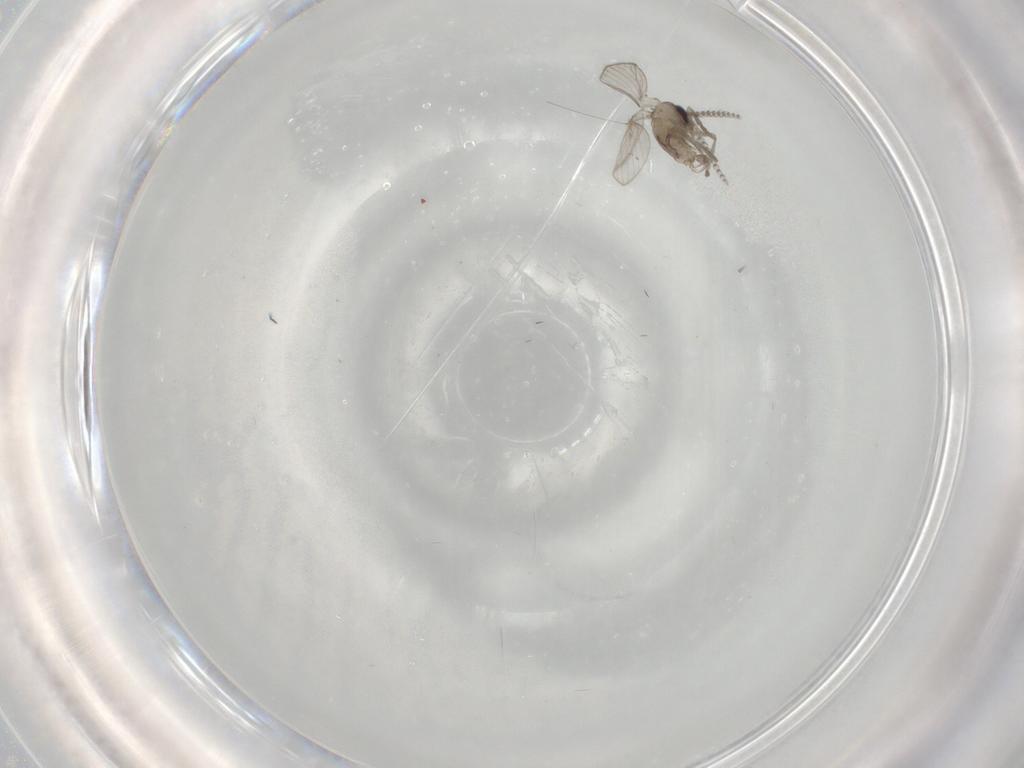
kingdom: Animalia
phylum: Arthropoda
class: Insecta
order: Diptera
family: Psychodidae
